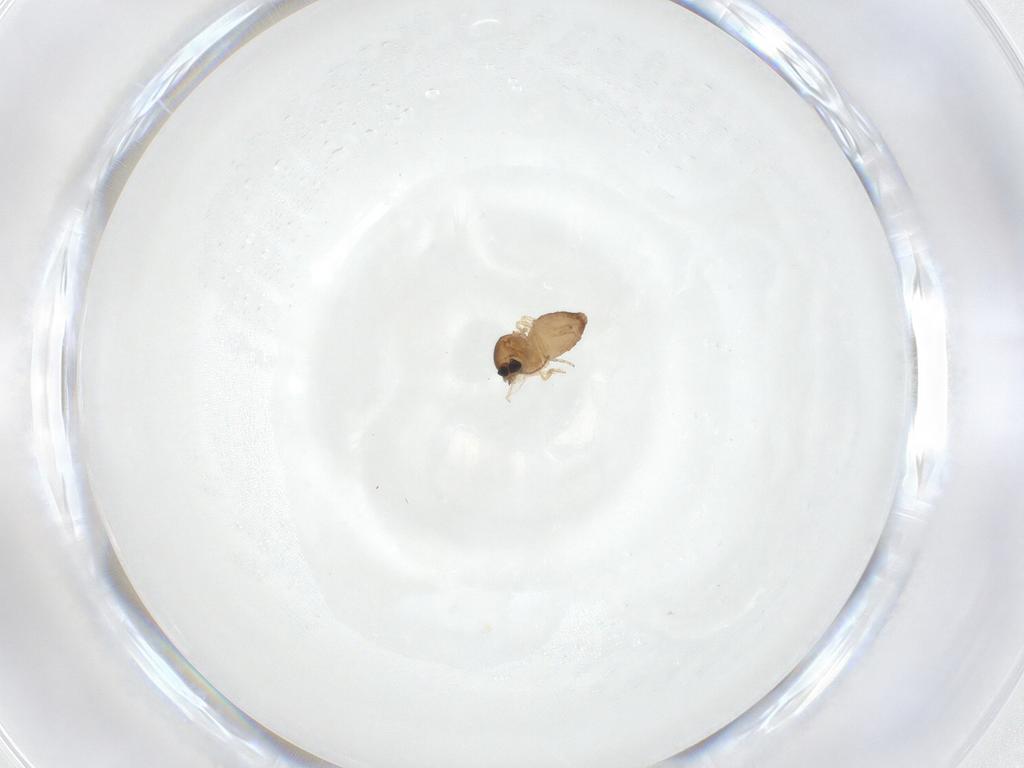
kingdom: Animalia
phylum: Arthropoda
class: Insecta
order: Diptera
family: Ceratopogonidae
